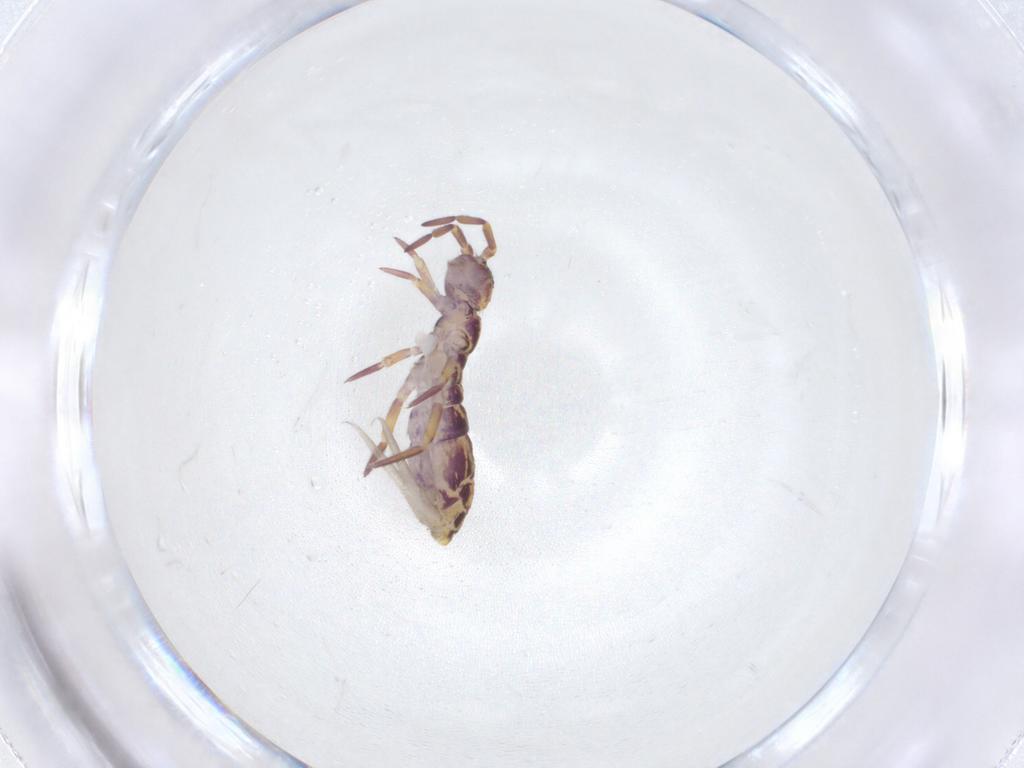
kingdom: Animalia
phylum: Arthropoda
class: Collembola
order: Entomobryomorpha
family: Isotomidae
